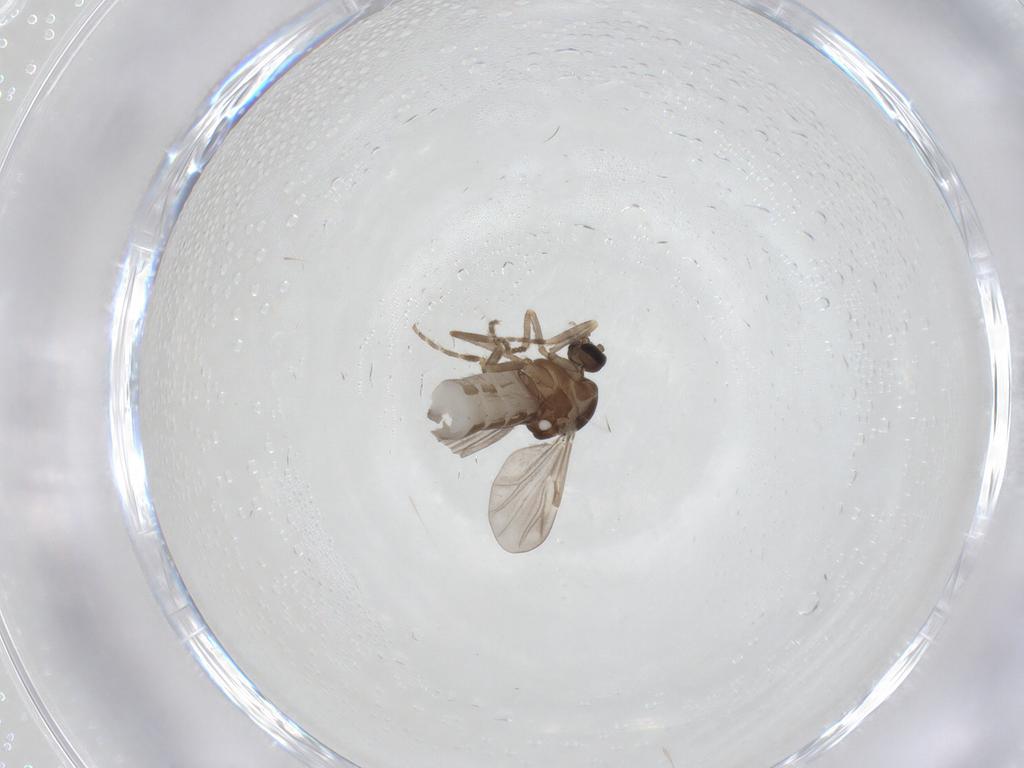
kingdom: Animalia
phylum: Arthropoda
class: Insecta
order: Diptera
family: Ceratopogonidae
